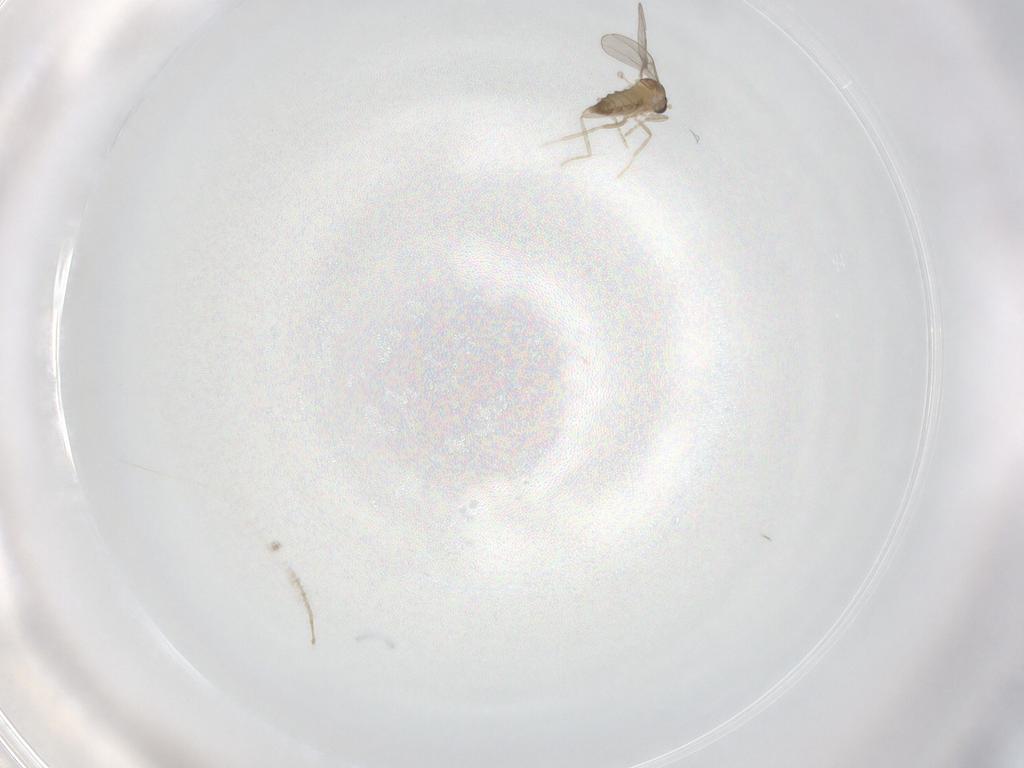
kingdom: Animalia
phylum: Arthropoda
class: Insecta
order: Diptera
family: Cecidomyiidae
